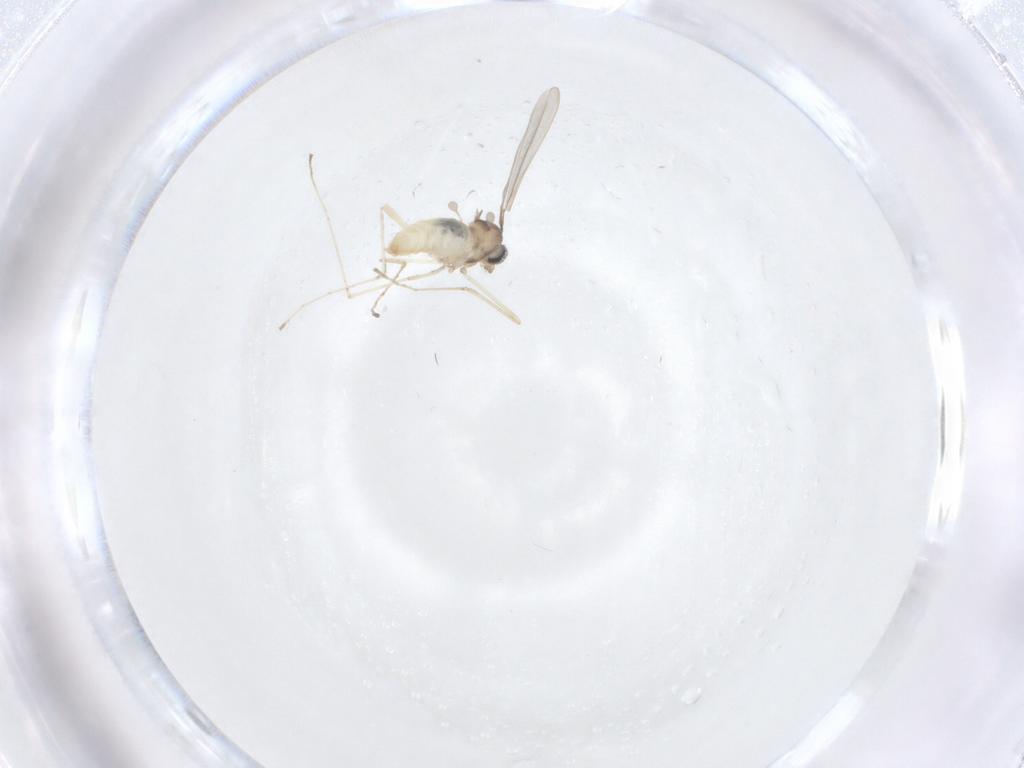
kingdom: Animalia
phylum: Arthropoda
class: Insecta
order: Diptera
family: Cecidomyiidae
